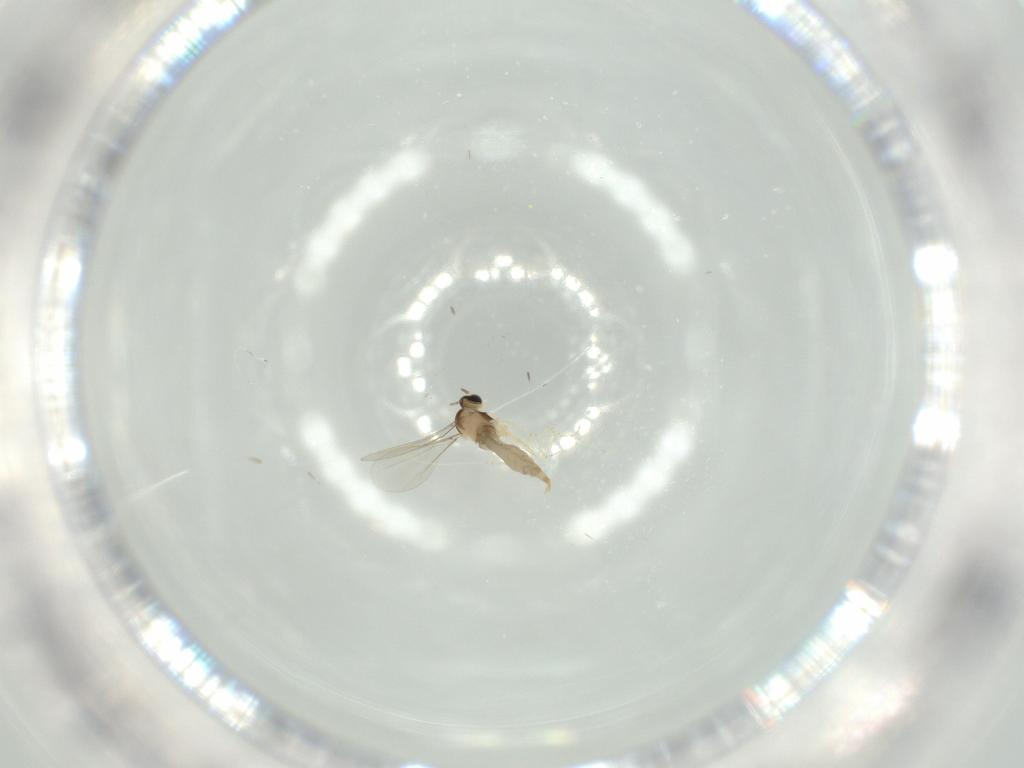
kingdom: Animalia
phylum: Arthropoda
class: Insecta
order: Diptera
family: Cecidomyiidae
